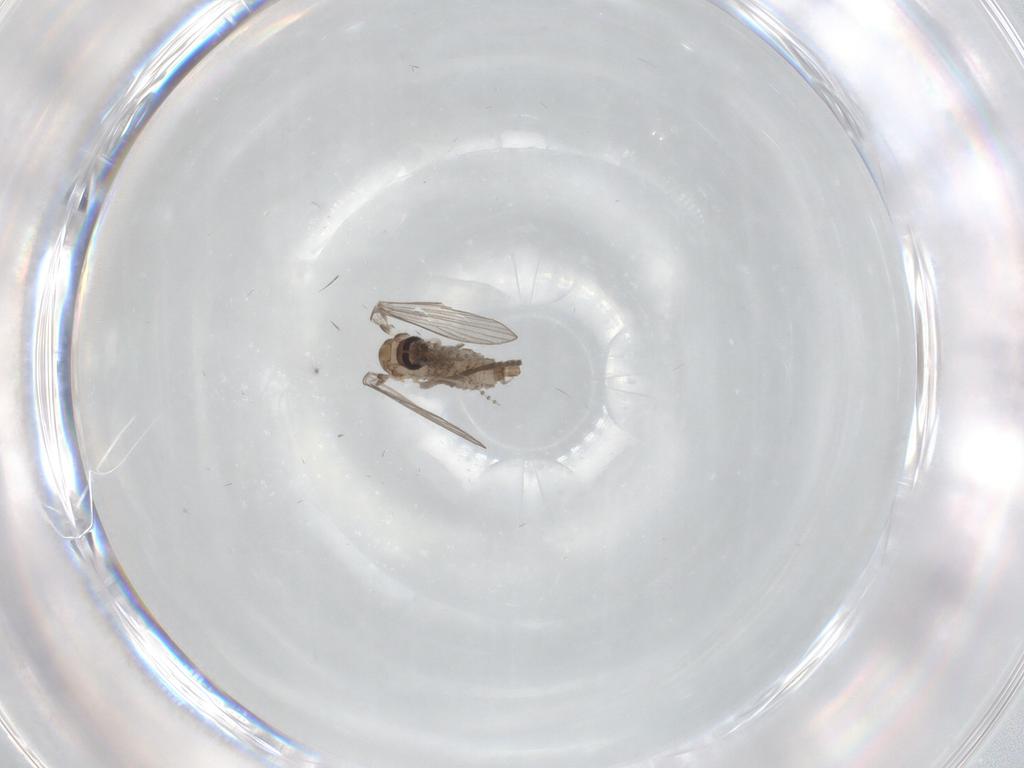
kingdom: Animalia
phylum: Arthropoda
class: Insecta
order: Diptera
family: Psychodidae
